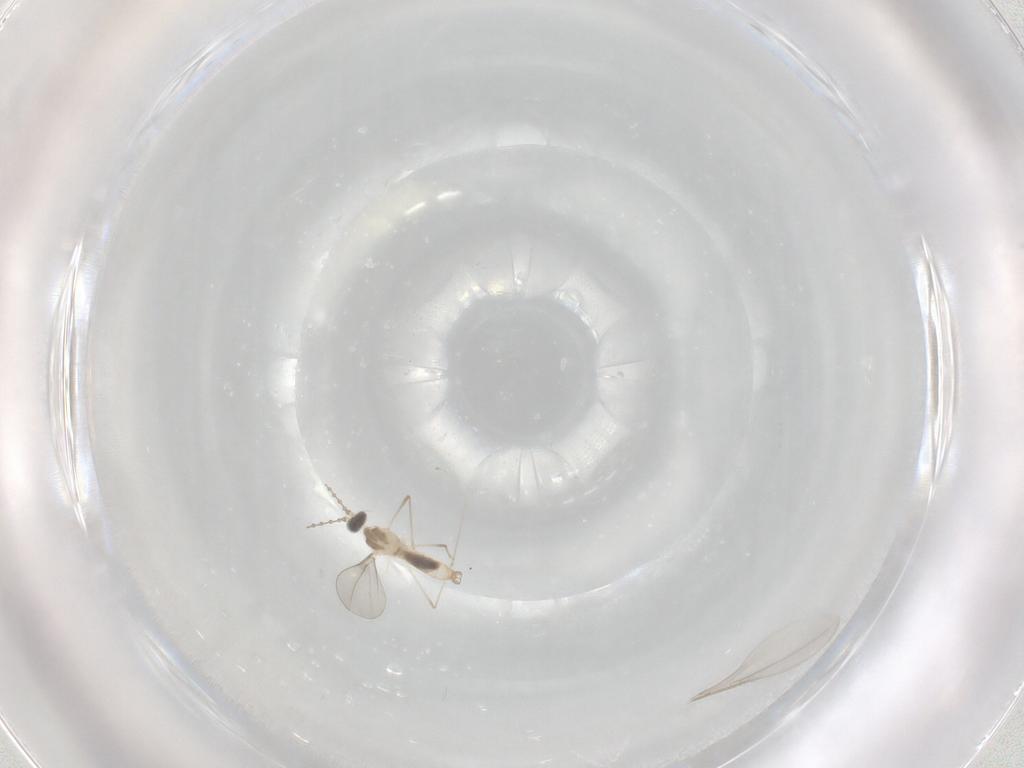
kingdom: Animalia
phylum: Arthropoda
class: Insecta
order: Diptera
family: Cecidomyiidae
